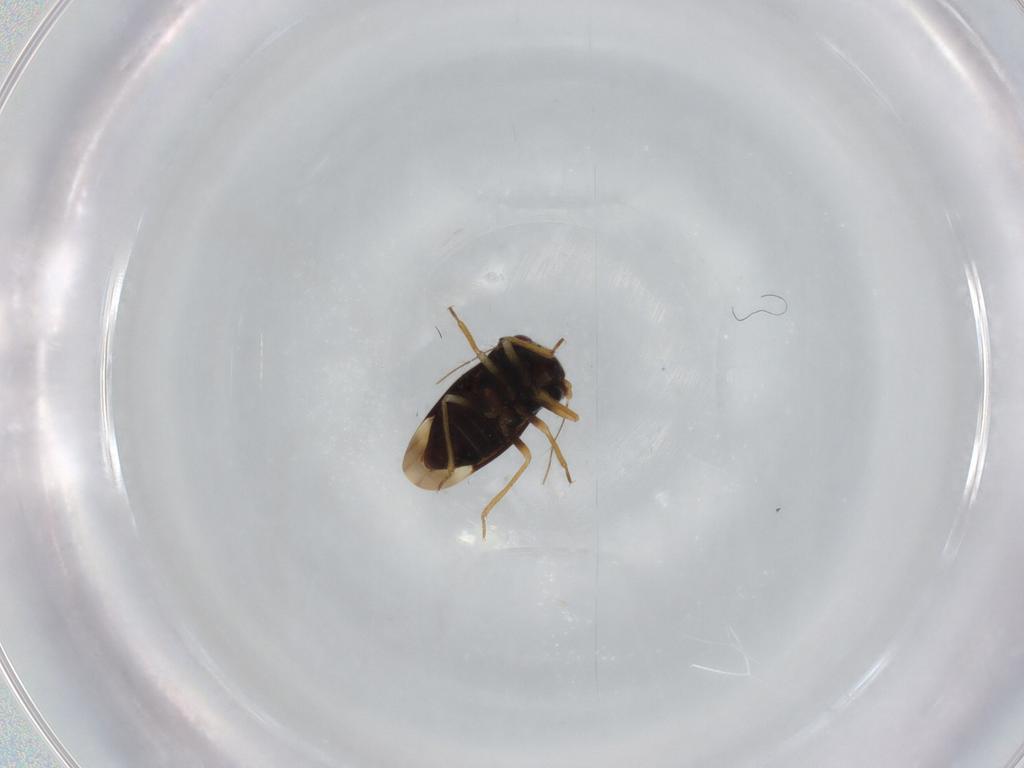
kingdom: Animalia
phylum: Arthropoda
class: Insecta
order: Hemiptera
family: Schizopteridae
